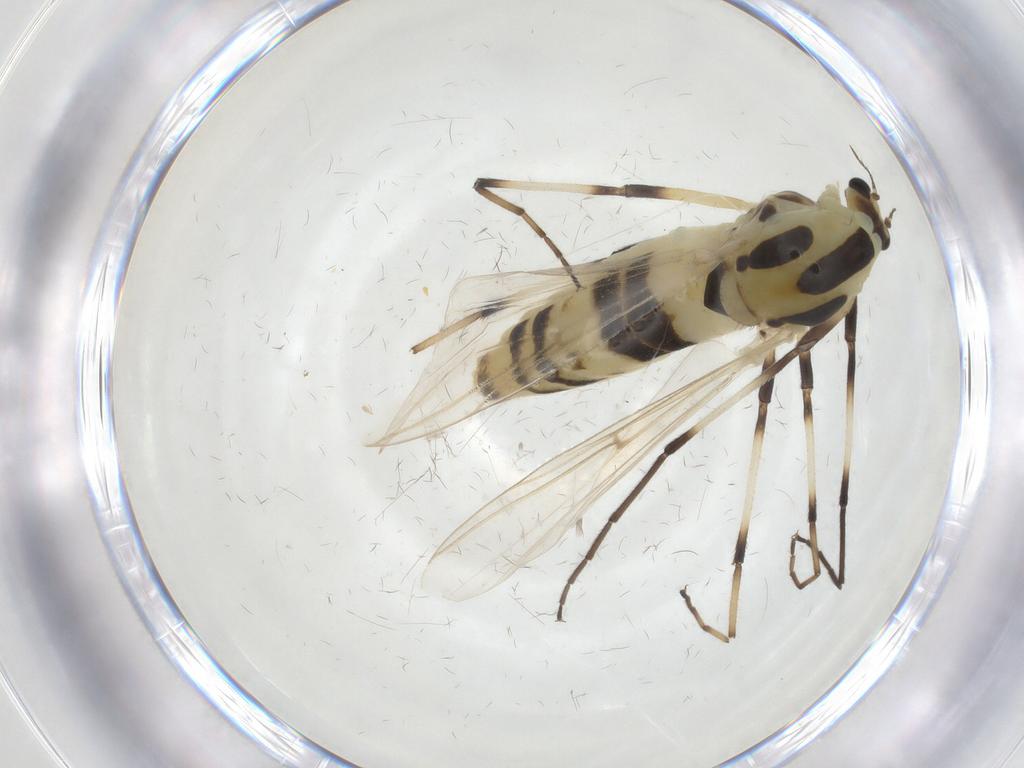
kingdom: Animalia
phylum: Arthropoda
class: Insecta
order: Diptera
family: Chironomidae
